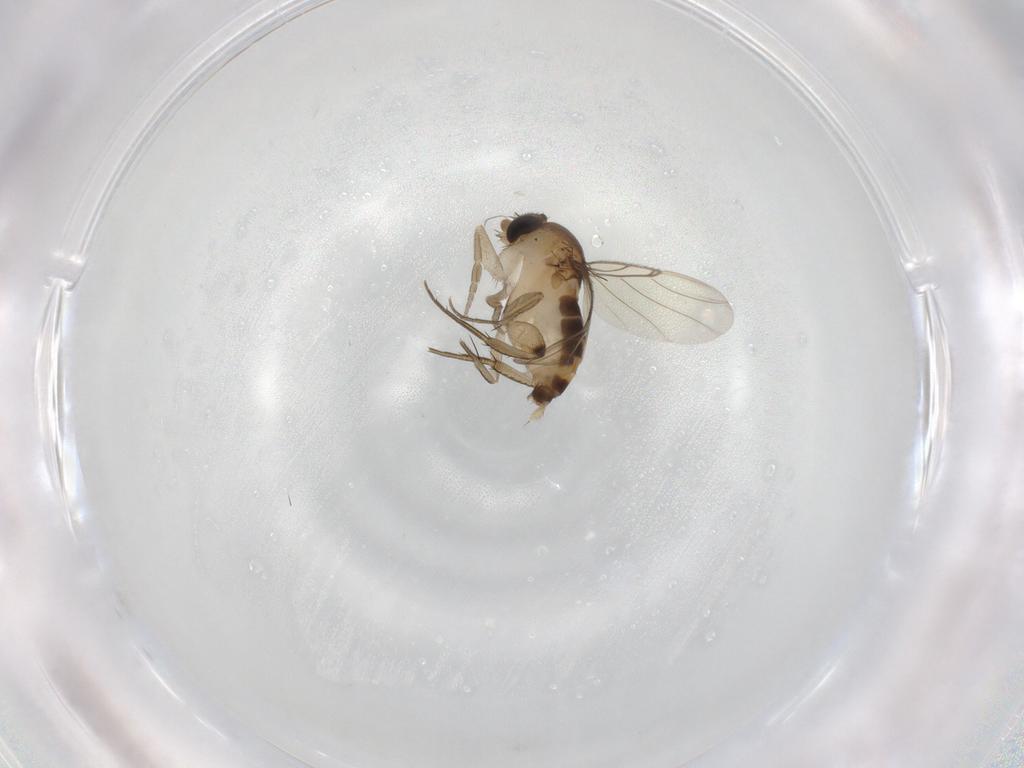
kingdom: Animalia
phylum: Arthropoda
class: Insecta
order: Diptera
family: Phoridae
